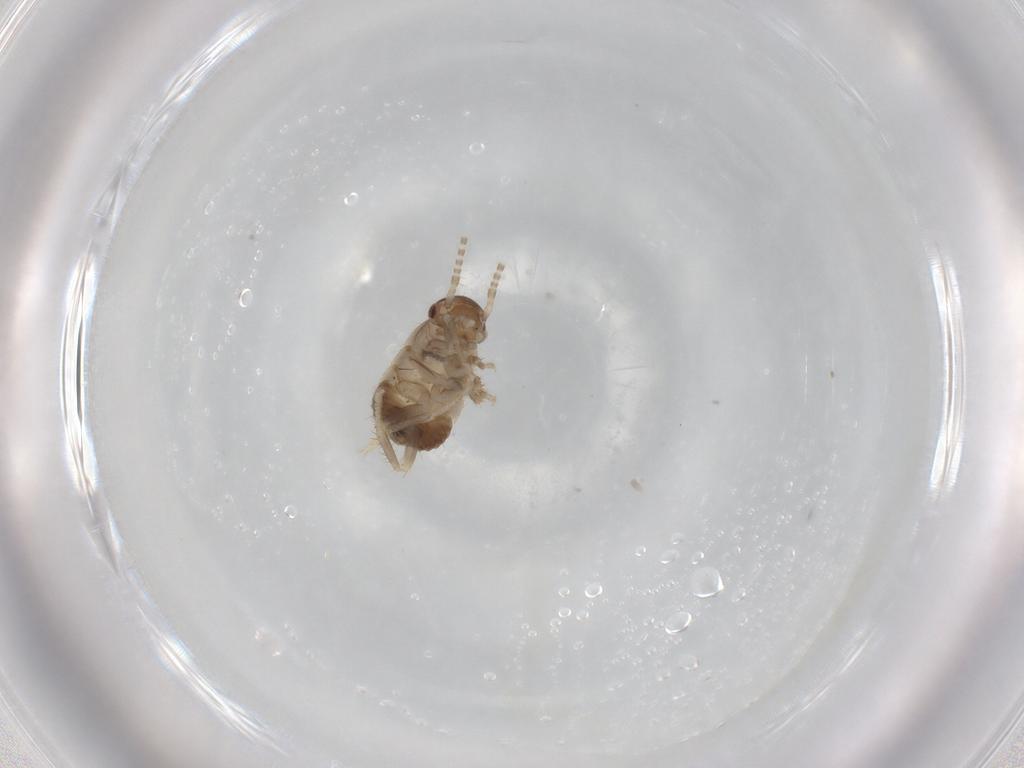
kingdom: Animalia
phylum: Arthropoda
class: Insecta
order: Blattodea
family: Ectobiidae
